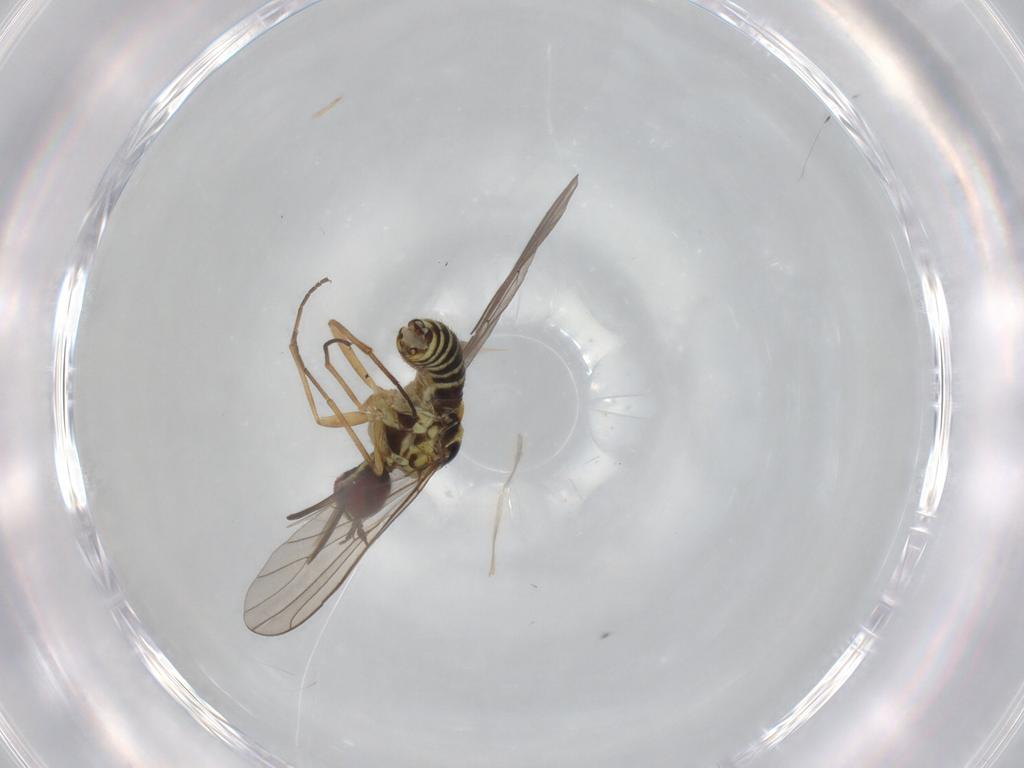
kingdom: Animalia
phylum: Arthropoda
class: Insecta
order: Diptera
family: Mythicomyiidae
